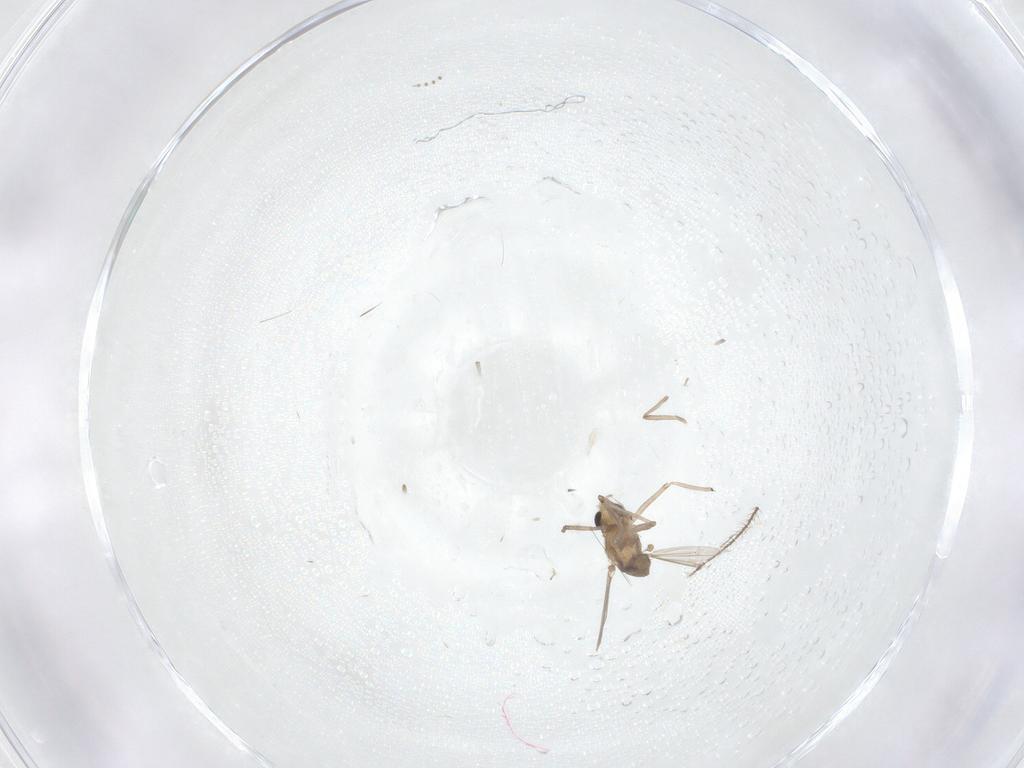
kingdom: Animalia
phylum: Arthropoda
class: Insecta
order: Diptera
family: Chironomidae
